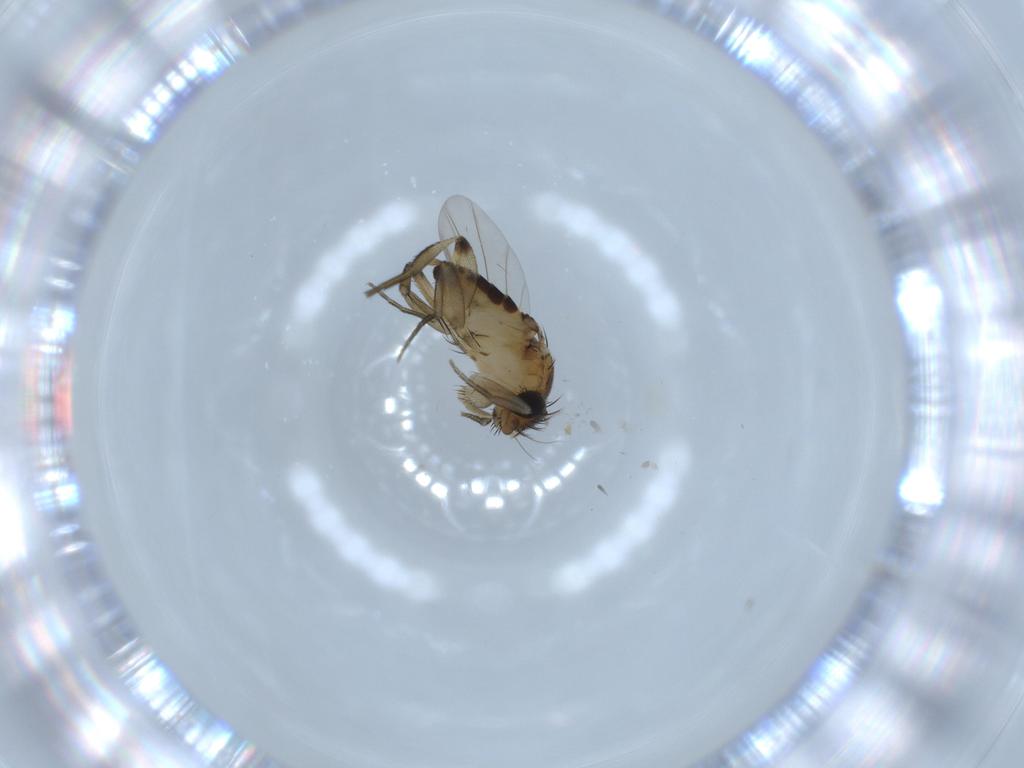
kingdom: Animalia
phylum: Arthropoda
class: Insecta
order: Diptera
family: Phoridae
